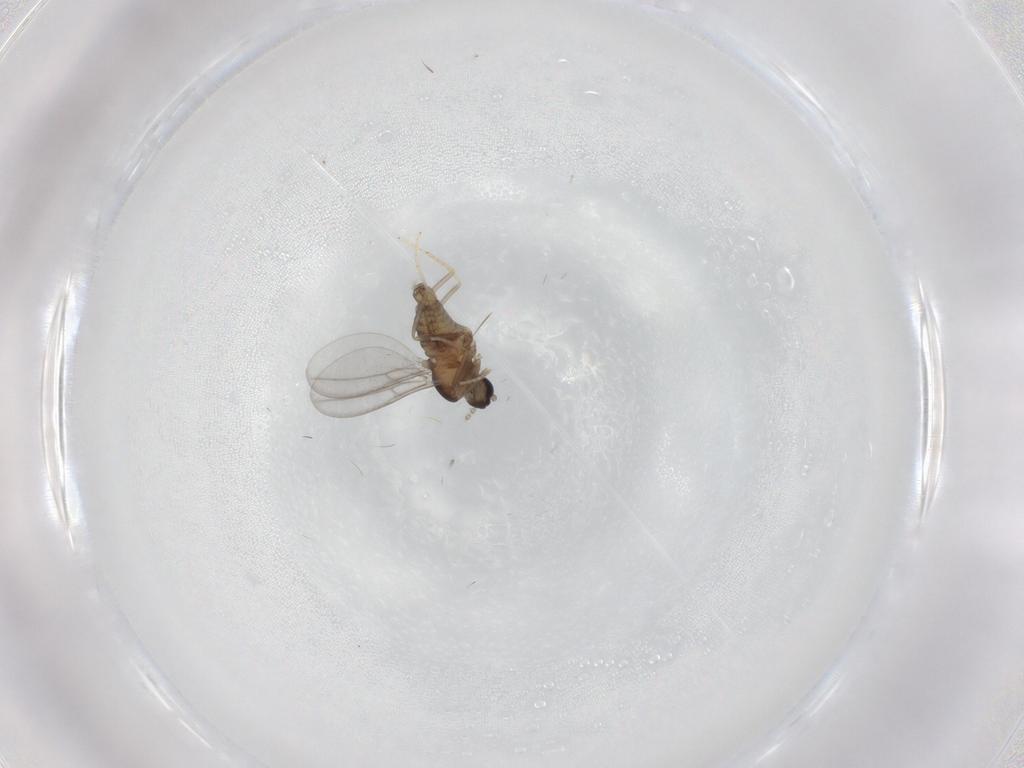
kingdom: Animalia
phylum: Arthropoda
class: Insecta
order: Diptera
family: Cecidomyiidae
